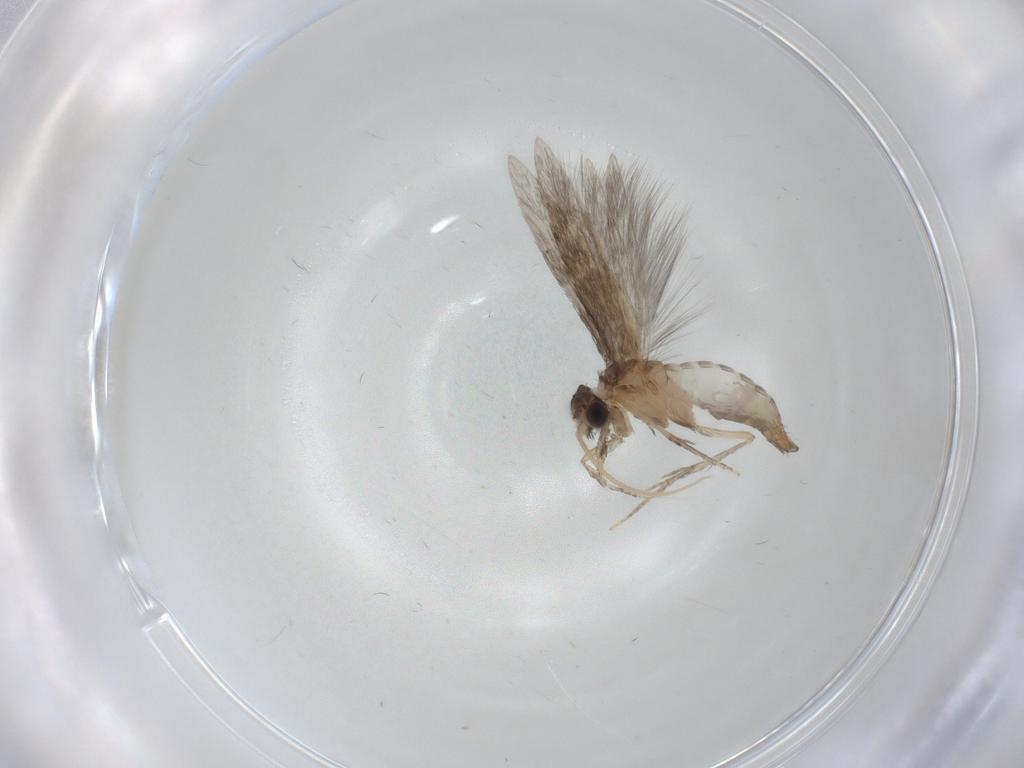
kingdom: Animalia
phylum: Arthropoda
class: Insecta
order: Trichoptera
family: Hydroptilidae
